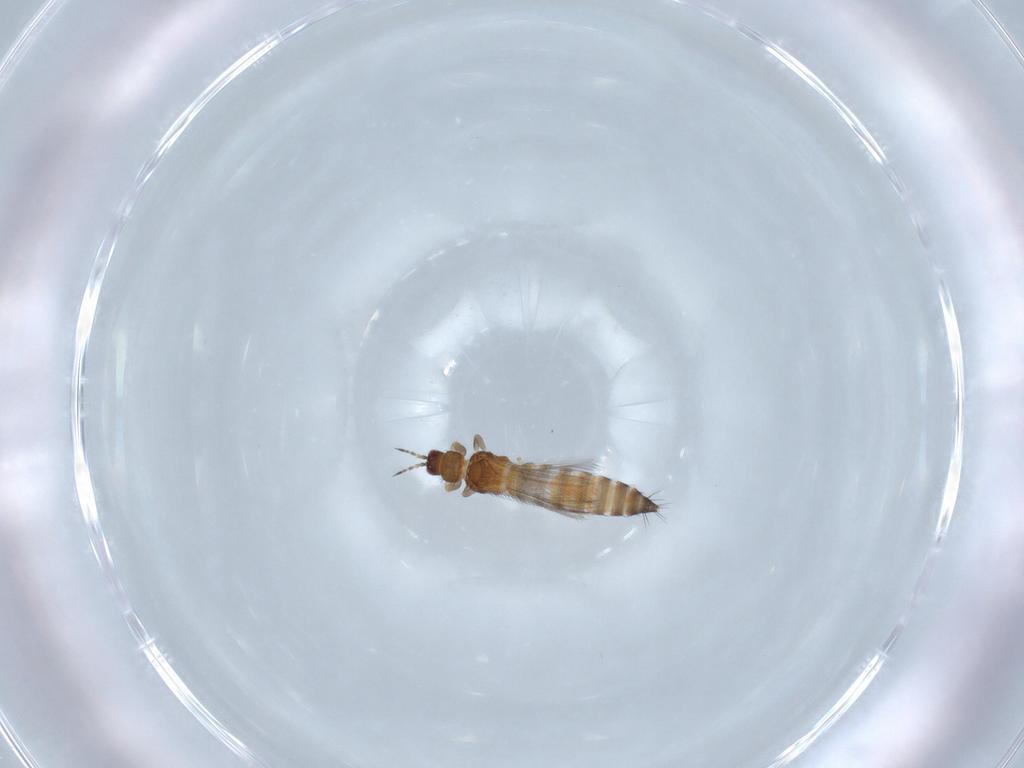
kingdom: Animalia
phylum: Arthropoda
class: Insecta
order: Thysanoptera
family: Thripidae
